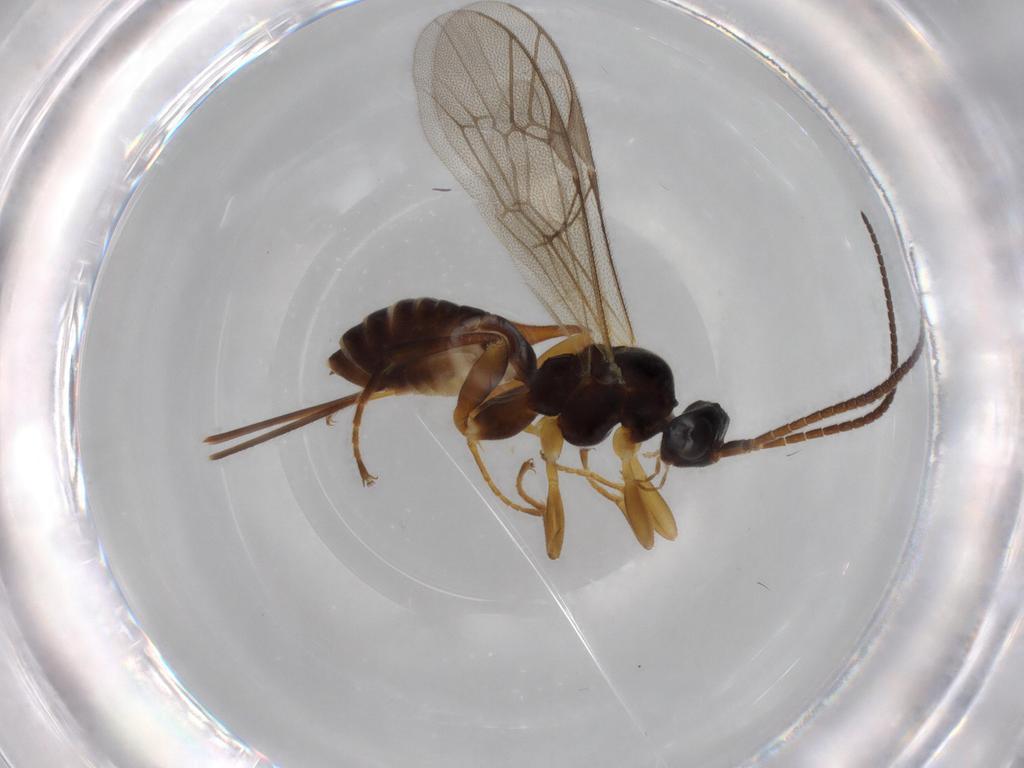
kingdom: Animalia
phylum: Arthropoda
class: Insecta
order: Hymenoptera
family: Ichneumonidae
